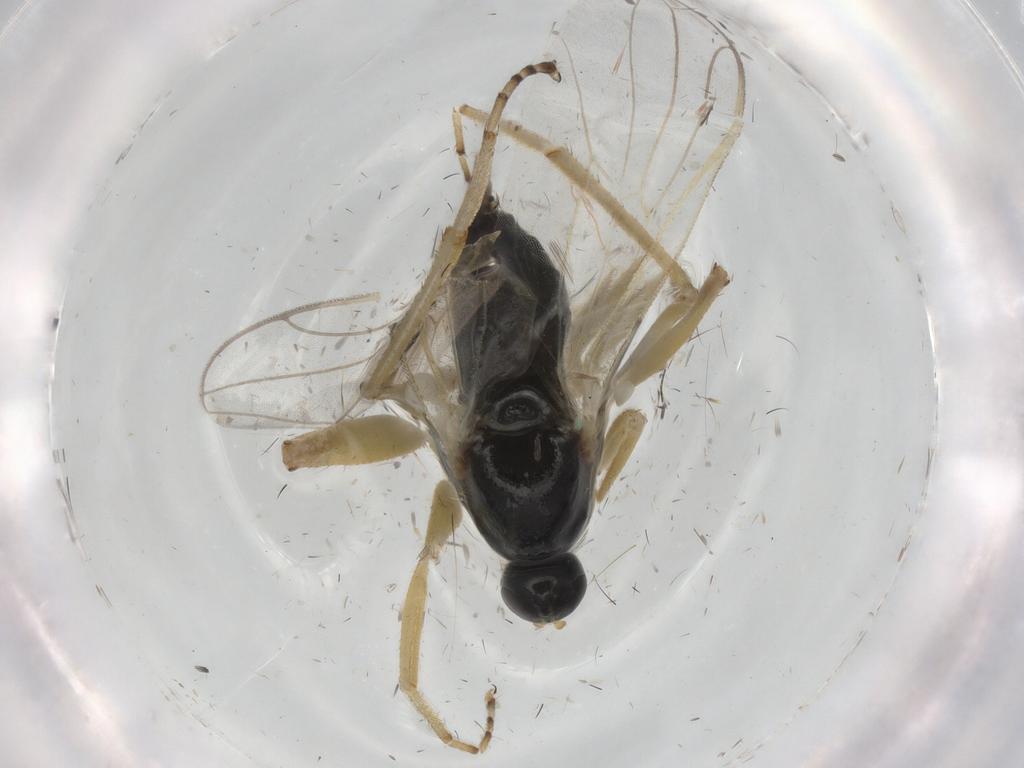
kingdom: Animalia
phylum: Arthropoda
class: Insecta
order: Diptera
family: Hybotidae
